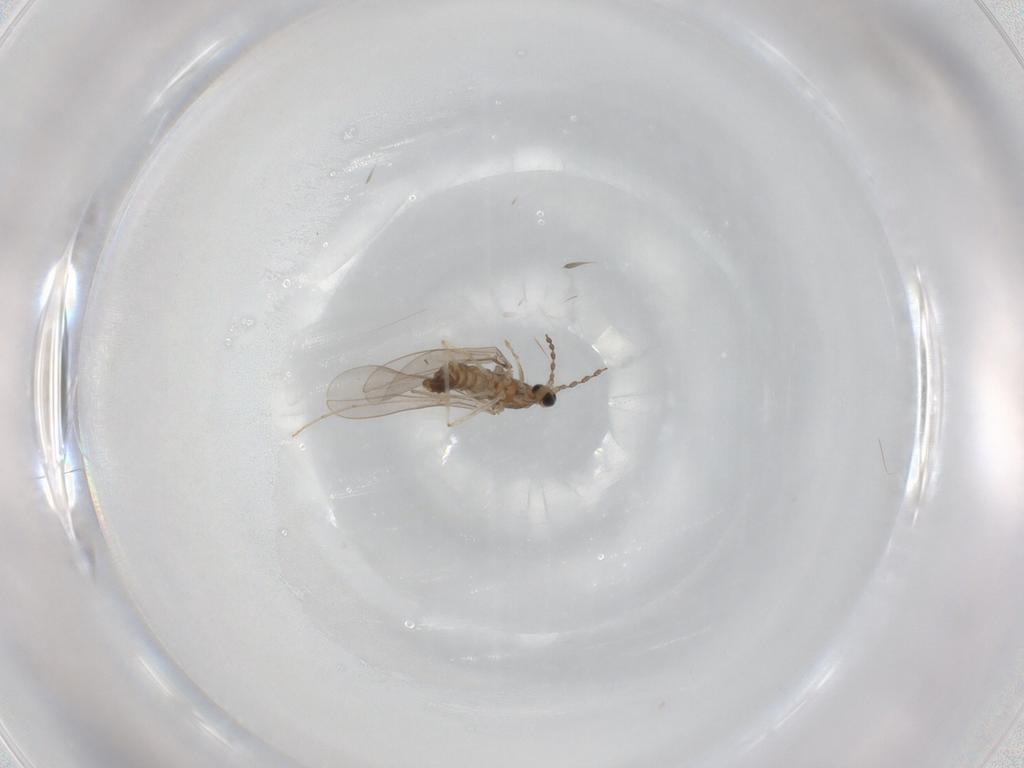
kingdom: Animalia
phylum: Arthropoda
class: Insecta
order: Diptera
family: Cecidomyiidae
